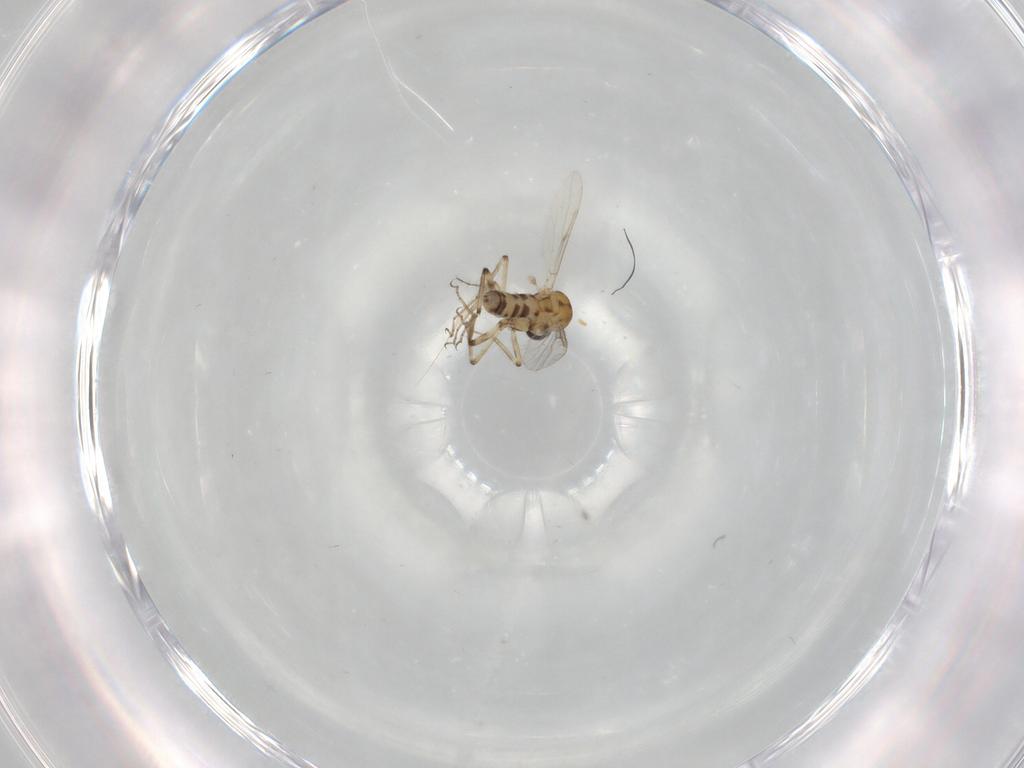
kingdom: Animalia
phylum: Arthropoda
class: Insecta
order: Diptera
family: Ceratopogonidae
